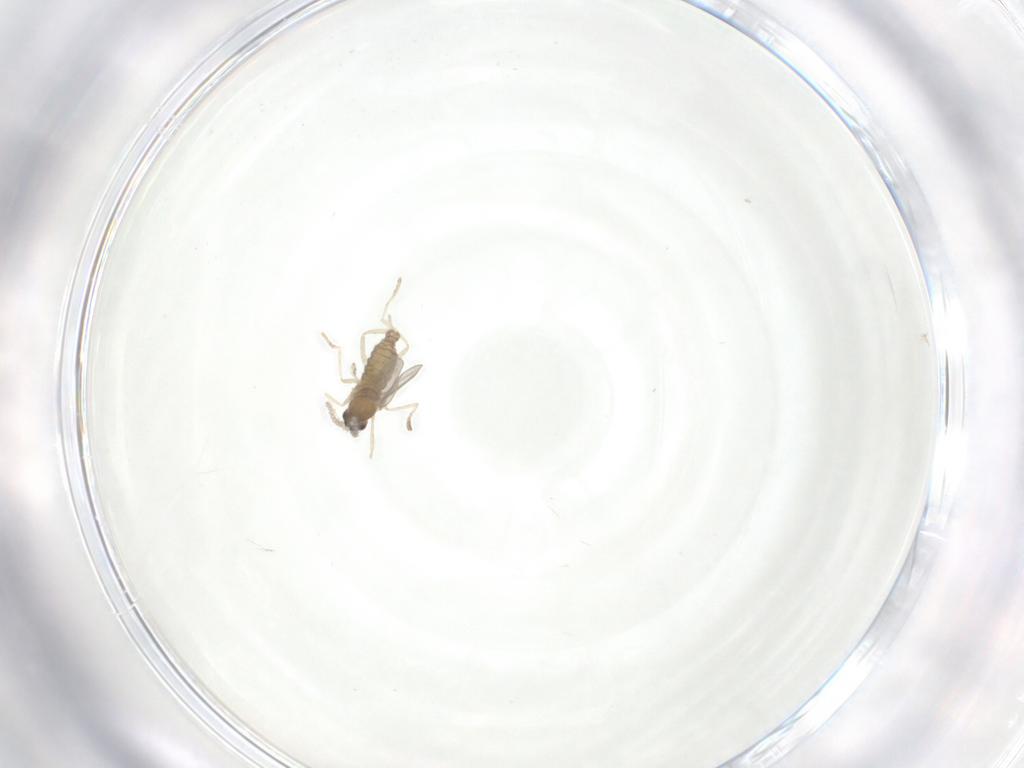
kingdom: Animalia
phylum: Arthropoda
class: Insecta
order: Diptera
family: Cecidomyiidae
